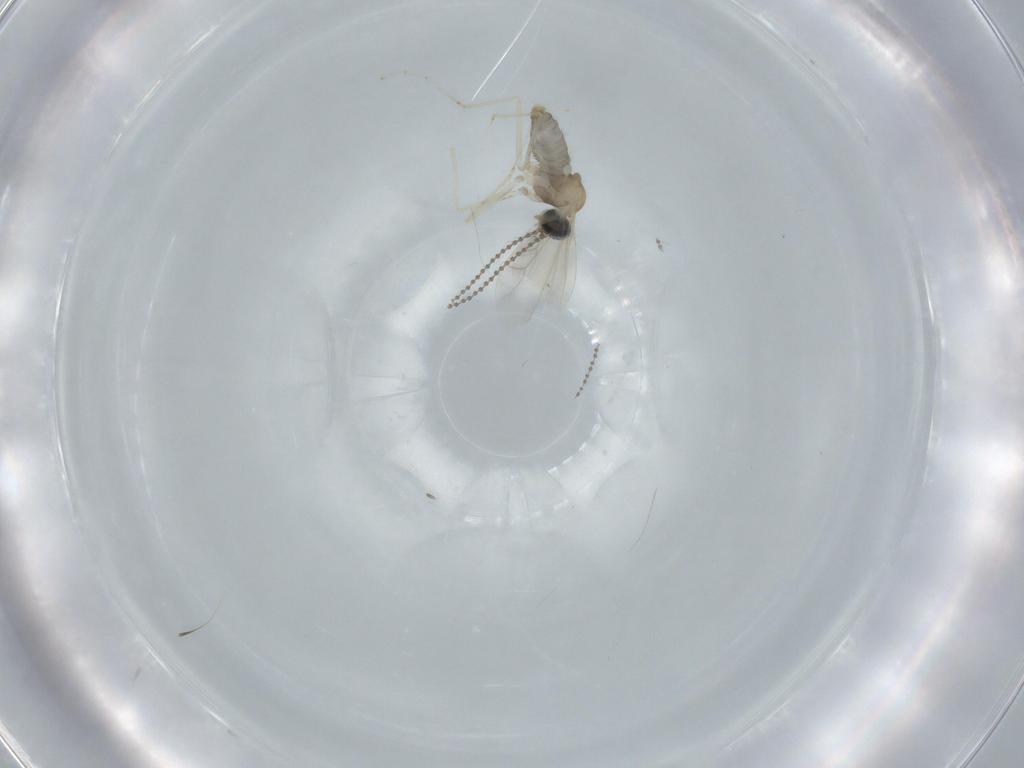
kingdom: Animalia
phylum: Arthropoda
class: Insecta
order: Diptera
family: Cecidomyiidae
